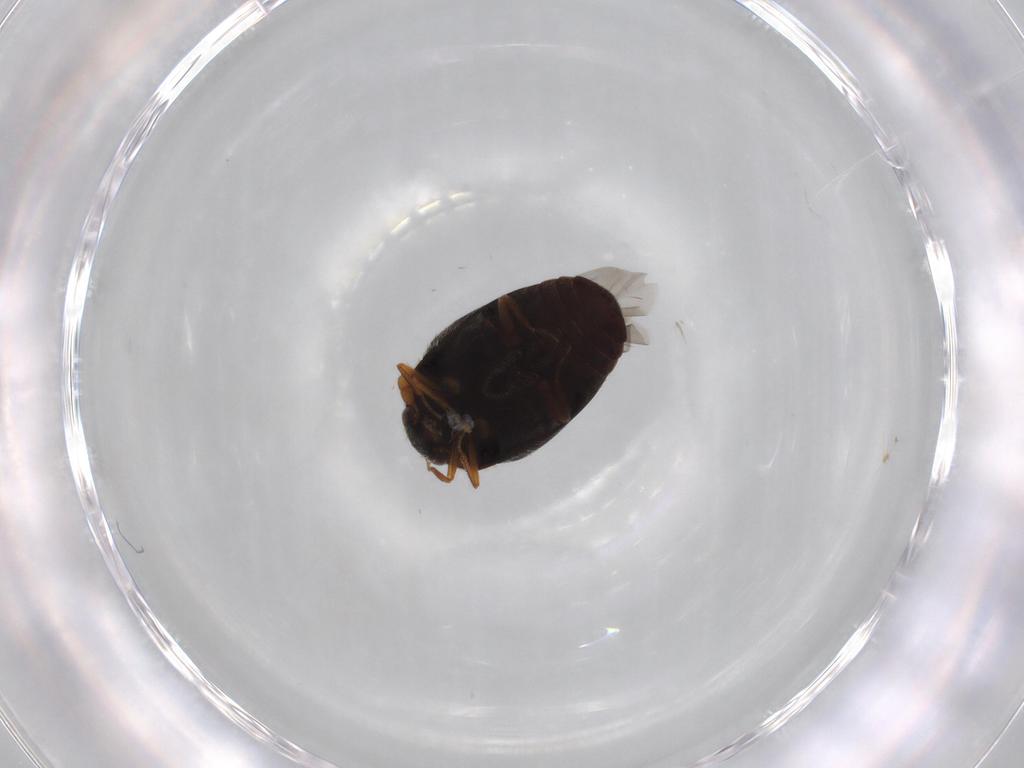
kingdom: Animalia
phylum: Arthropoda
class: Insecta
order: Coleoptera
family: Dermestidae
